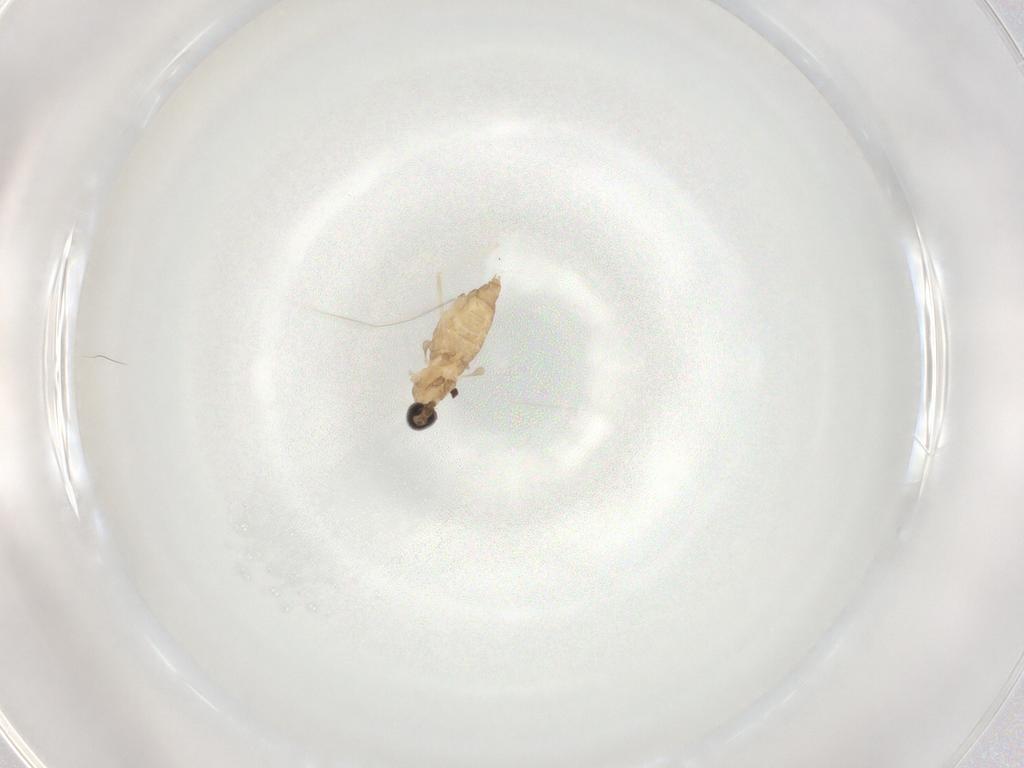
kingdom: Animalia
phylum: Arthropoda
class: Insecta
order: Diptera
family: Cecidomyiidae
